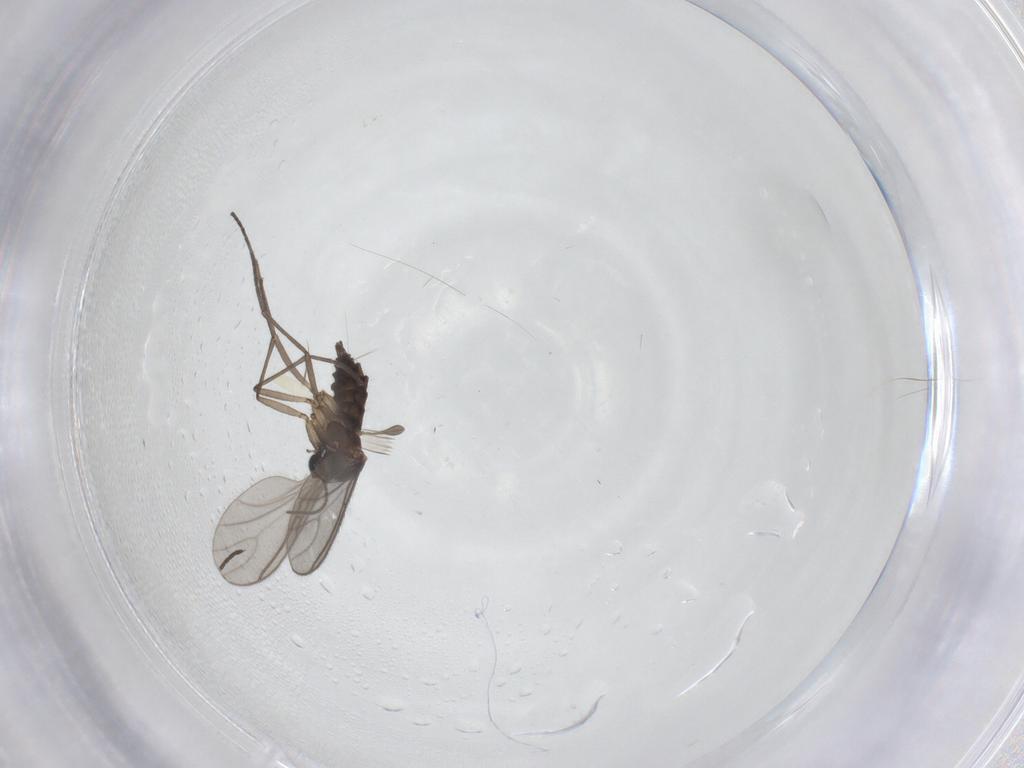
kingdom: Animalia
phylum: Arthropoda
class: Insecta
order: Diptera
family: Sciaridae
